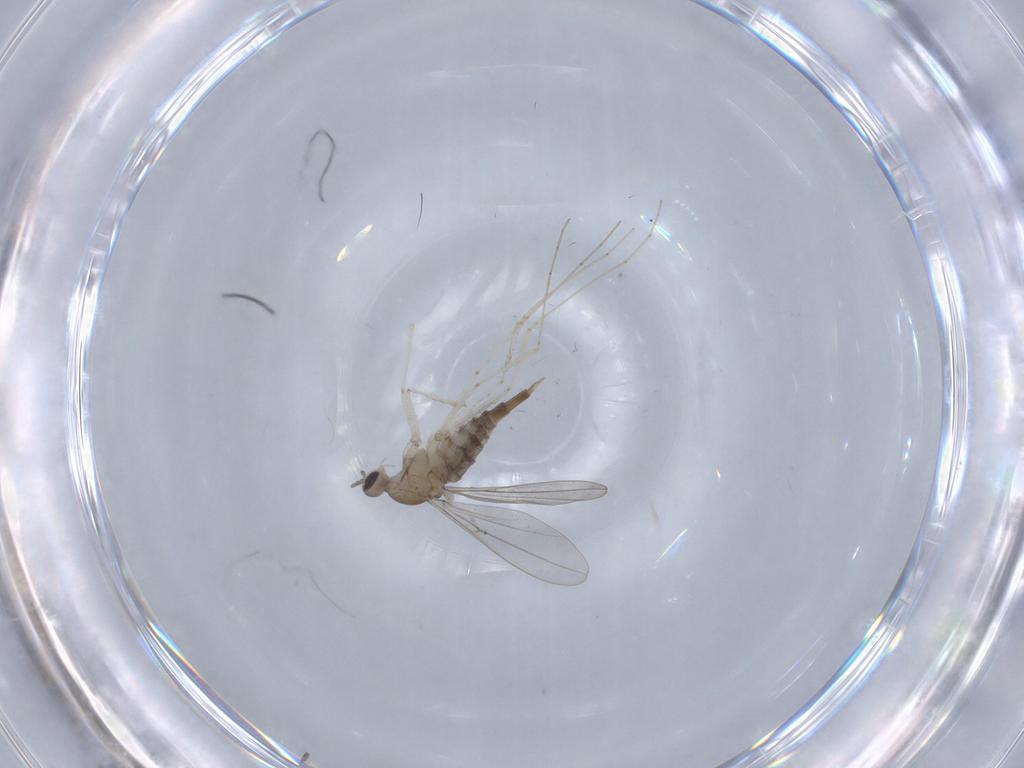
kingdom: Animalia
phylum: Arthropoda
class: Insecta
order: Diptera
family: Cecidomyiidae
